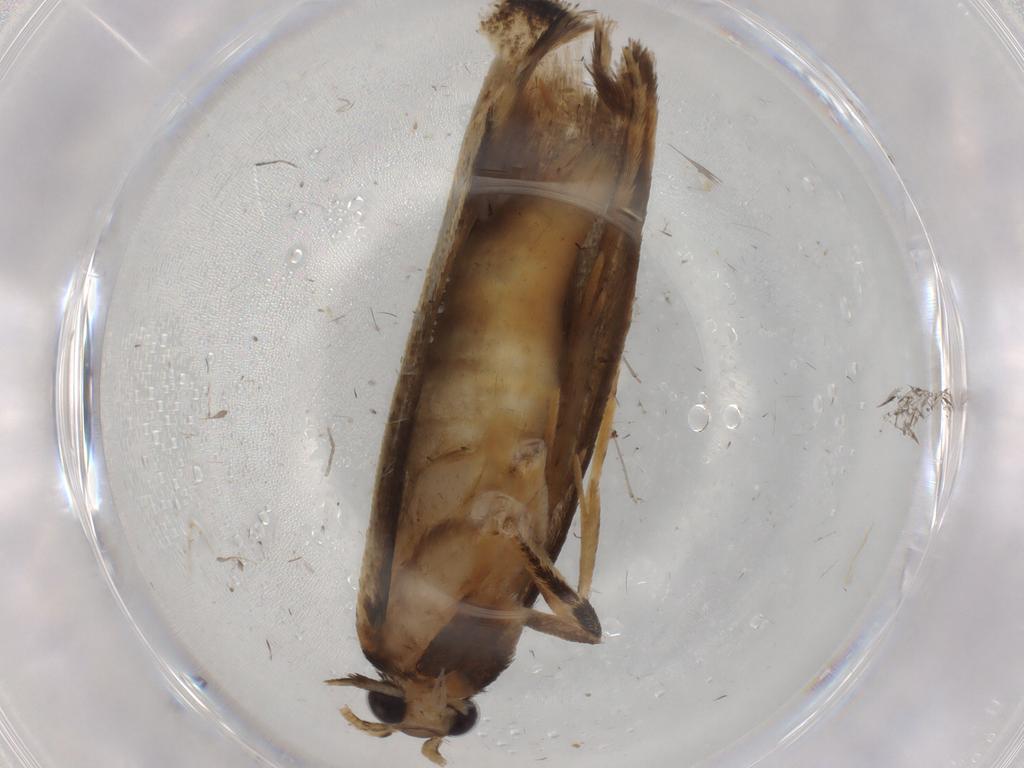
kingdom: Animalia
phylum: Arthropoda
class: Insecta
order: Lepidoptera
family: Tineidae
